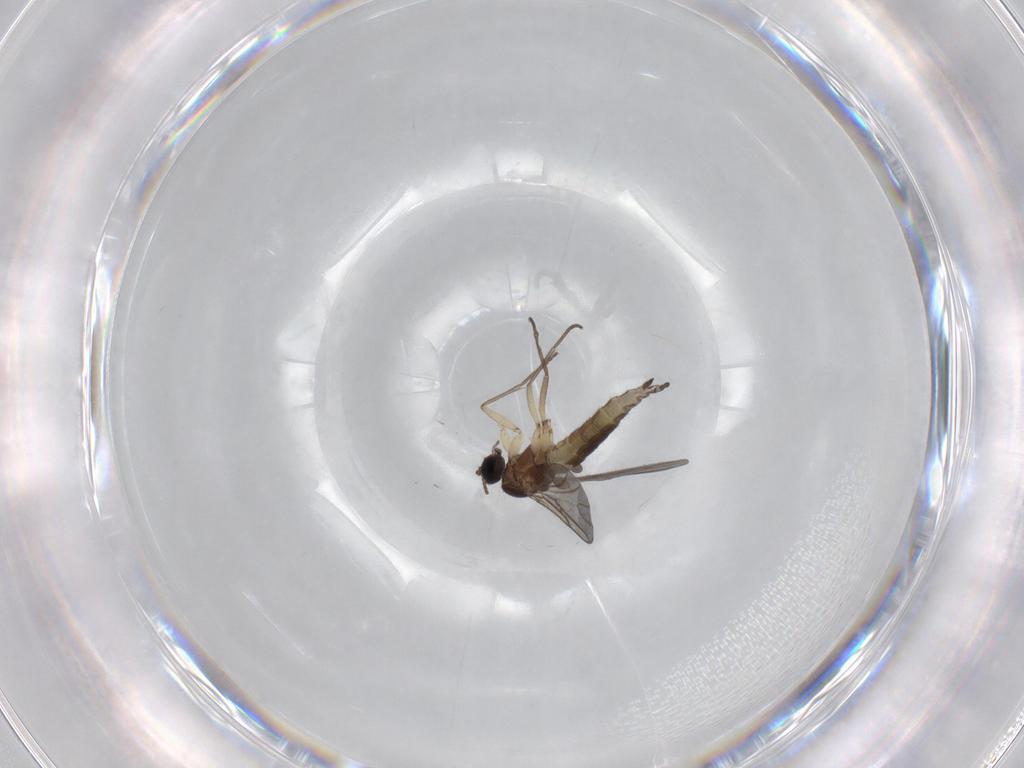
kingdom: Animalia
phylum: Arthropoda
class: Insecta
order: Diptera
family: Sciaridae
